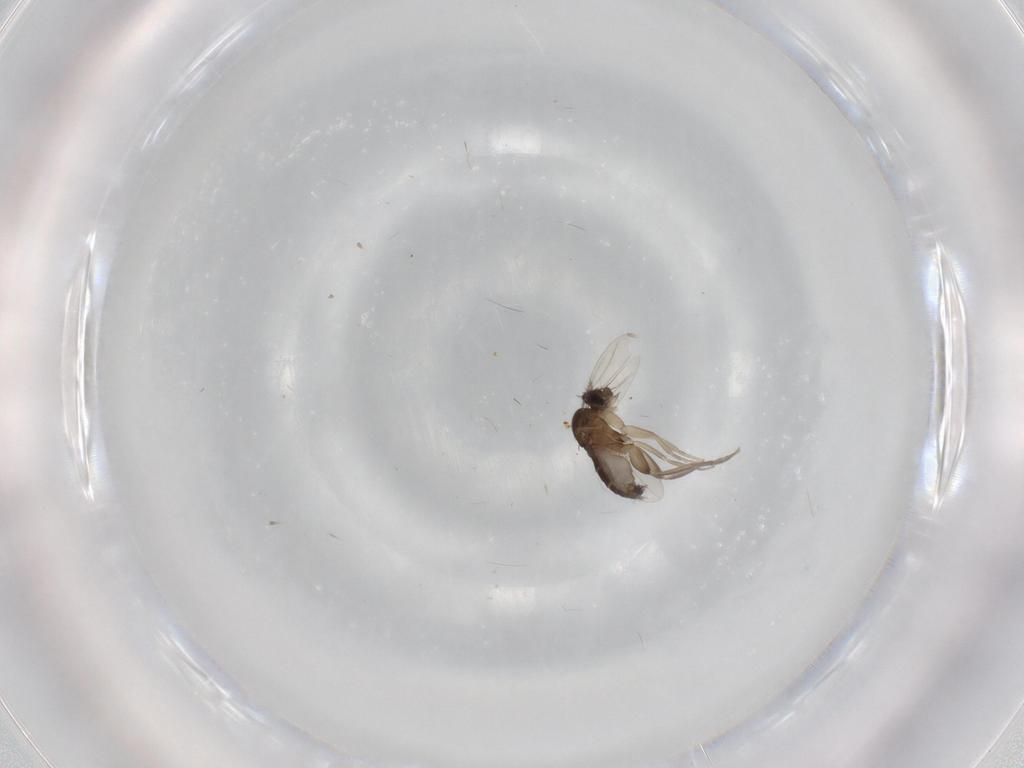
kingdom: Animalia
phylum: Arthropoda
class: Insecta
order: Diptera
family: Phoridae
